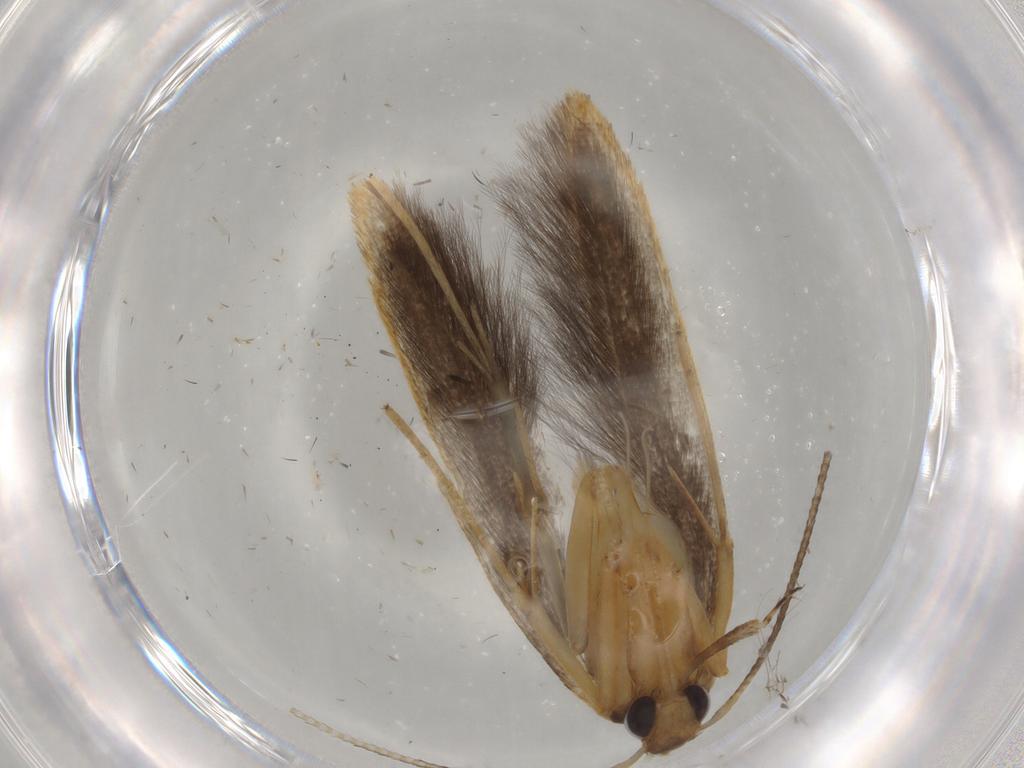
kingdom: Animalia
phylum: Arthropoda
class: Insecta
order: Lepidoptera
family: Pterolonchidae
